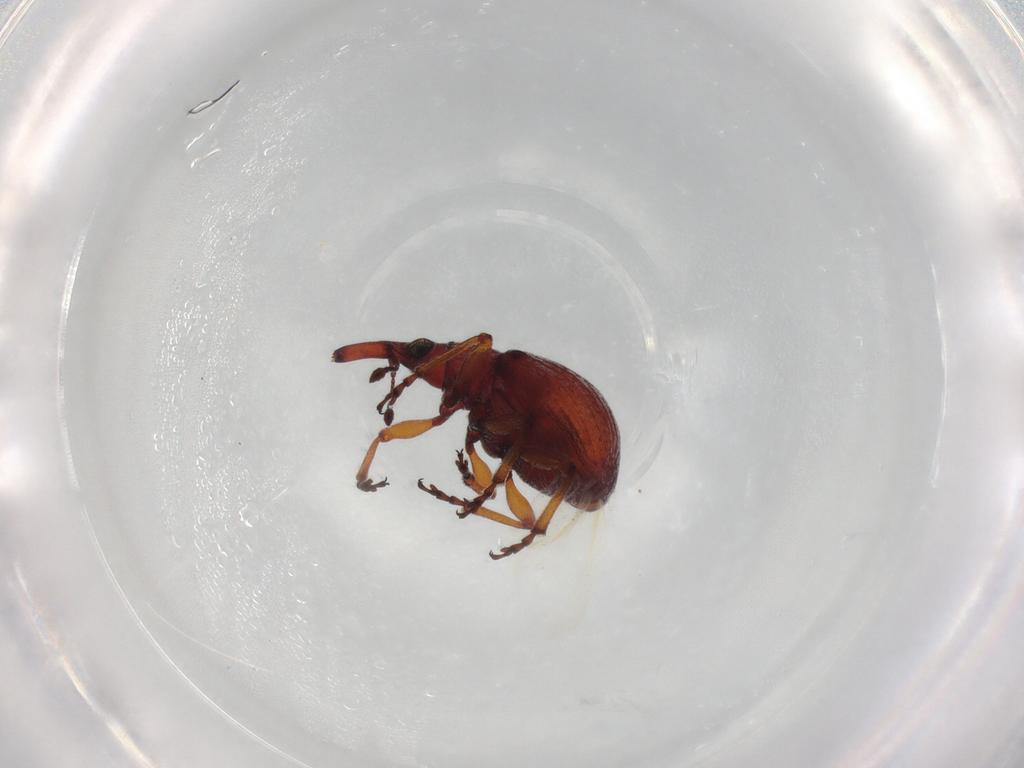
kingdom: Animalia
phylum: Arthropoda
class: Insecta
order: Coleoptera
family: Brentidae
